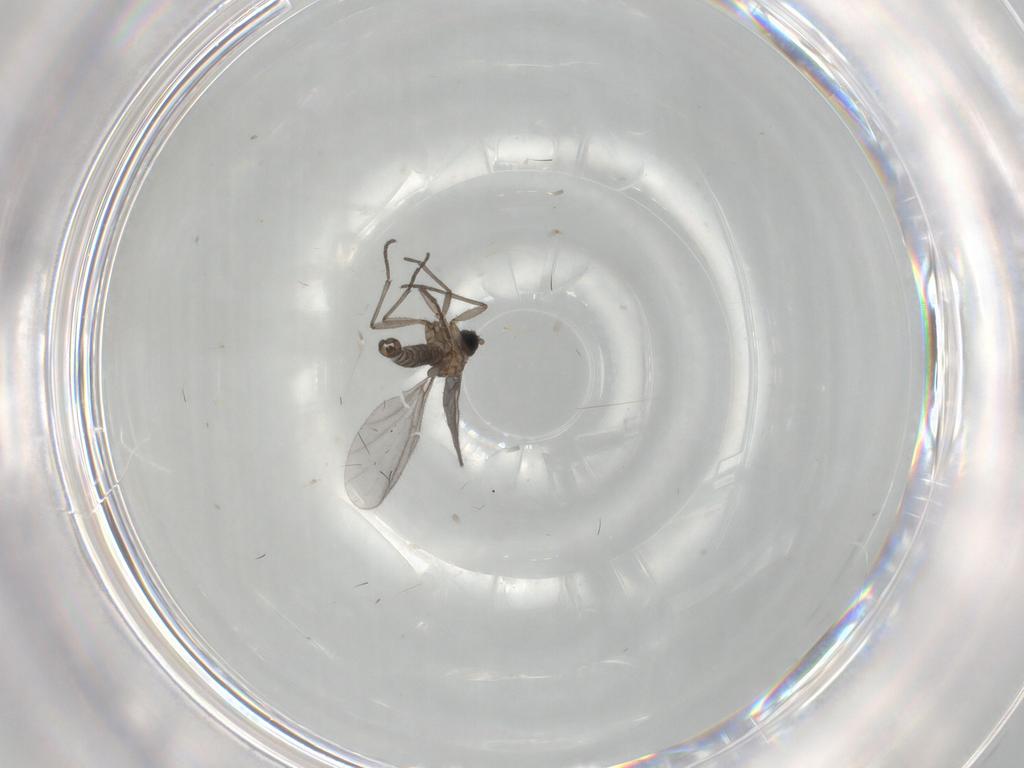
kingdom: Animalia
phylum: Arthropoda
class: Insecta
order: Diptera
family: Sciaridae
